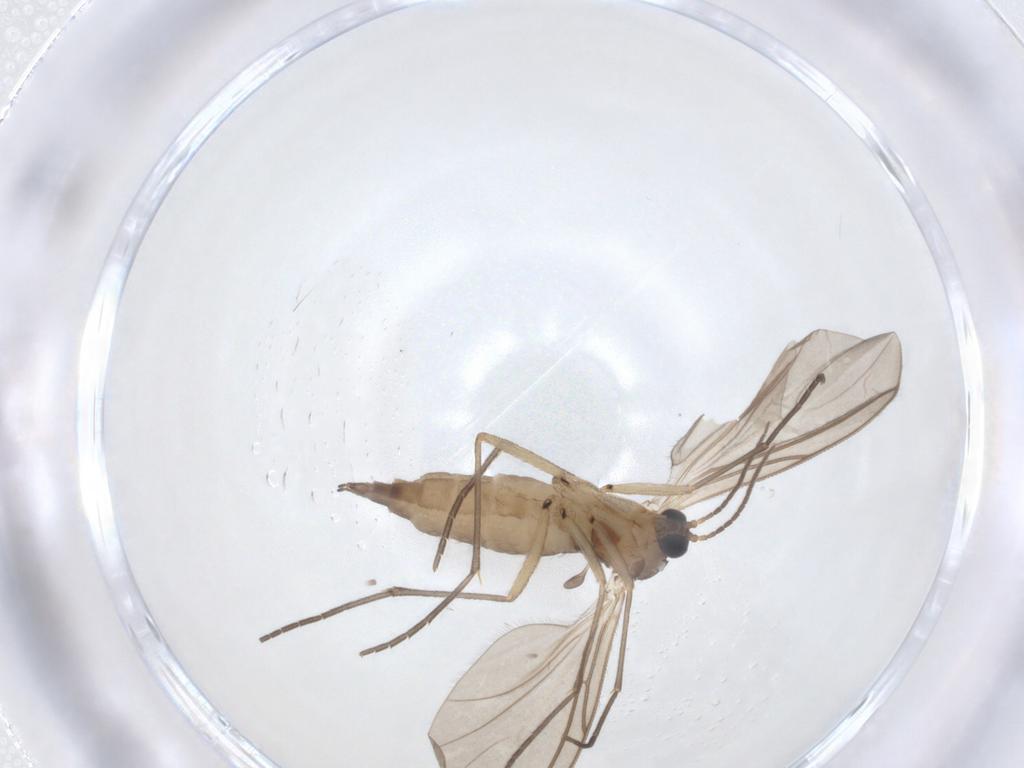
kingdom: Animalia
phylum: Arthropoda
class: Insecta
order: Diptera
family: Sciaridae
